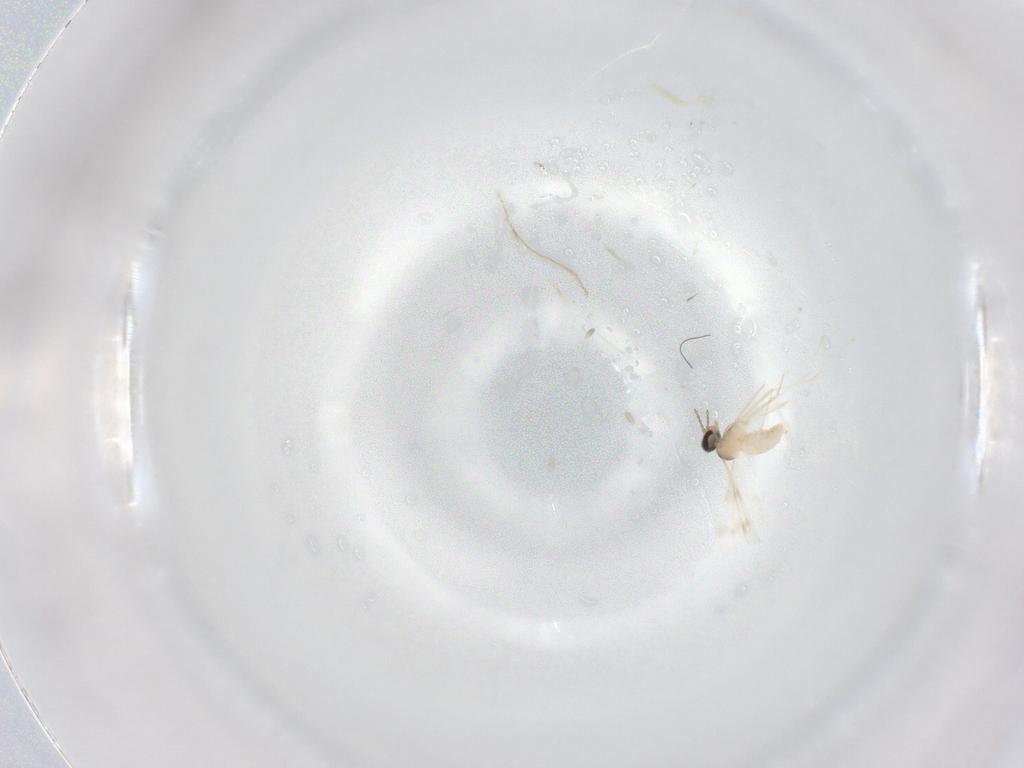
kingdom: Animalia
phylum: Arthropoda
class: Insecta
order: Diptera
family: Cecidomyiidae
